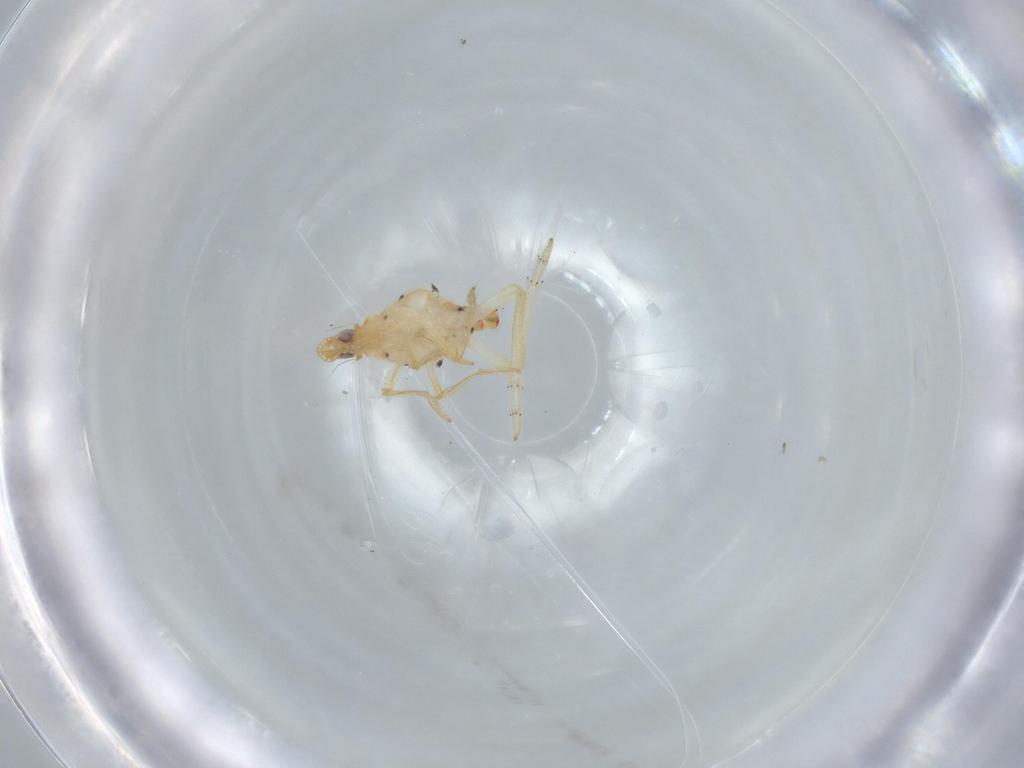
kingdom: Animalia
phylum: Arthropoda
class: Insecta
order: Hemiptera
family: Tropiduchidae
